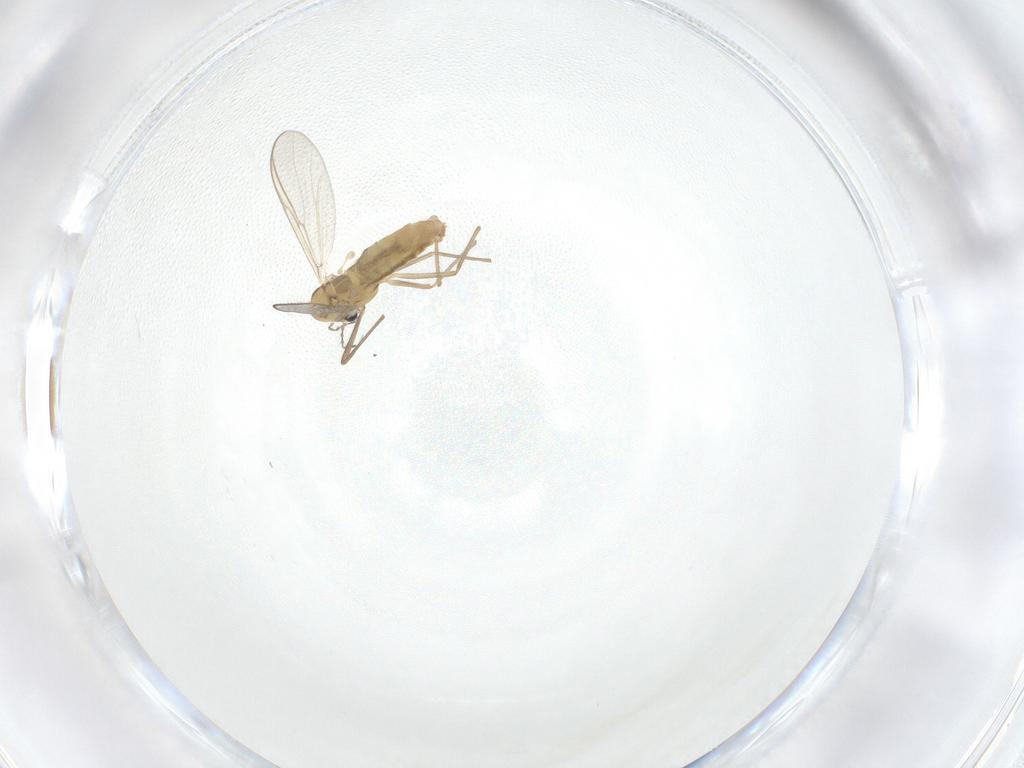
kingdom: Animalia
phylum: Arthropoda
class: Insecta
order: Diptera
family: Chironomidae
